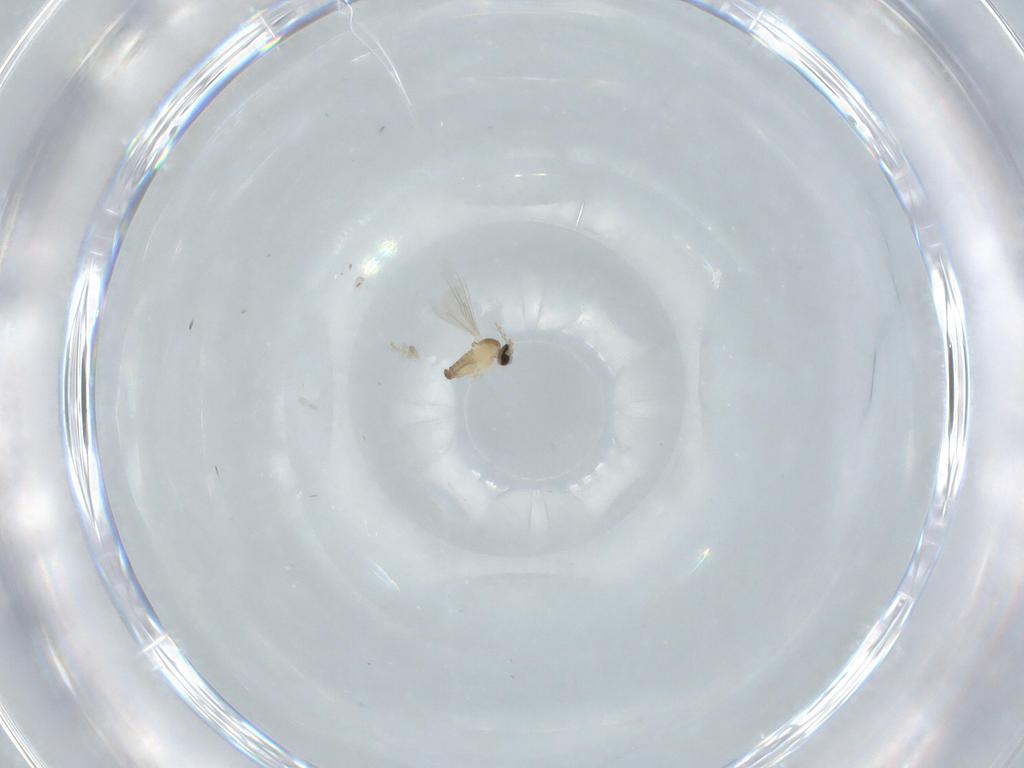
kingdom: Animalia
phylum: Arthropoda
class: Insecta
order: Diptera
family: Cecidomyiidae
